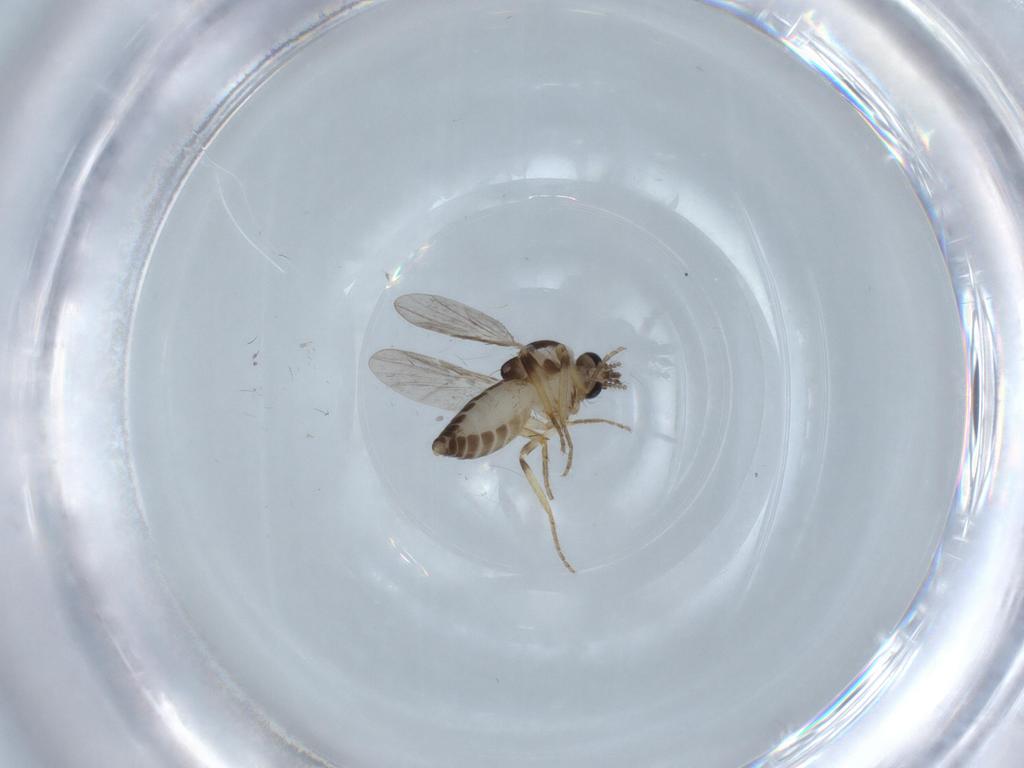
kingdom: Animalia
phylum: Arthropoda
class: Insecta
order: Diptera
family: Ceratopogonidae
